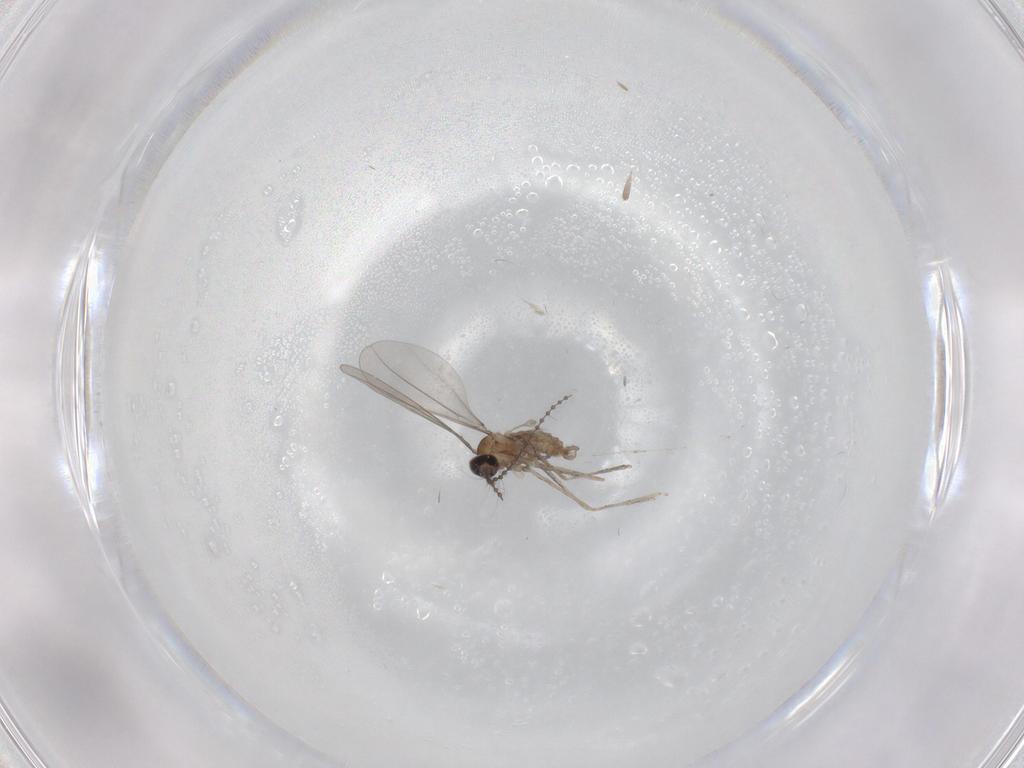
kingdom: Animalia
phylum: Arthropoda
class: Insecta
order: Diptera
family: Cecidomyiidae
